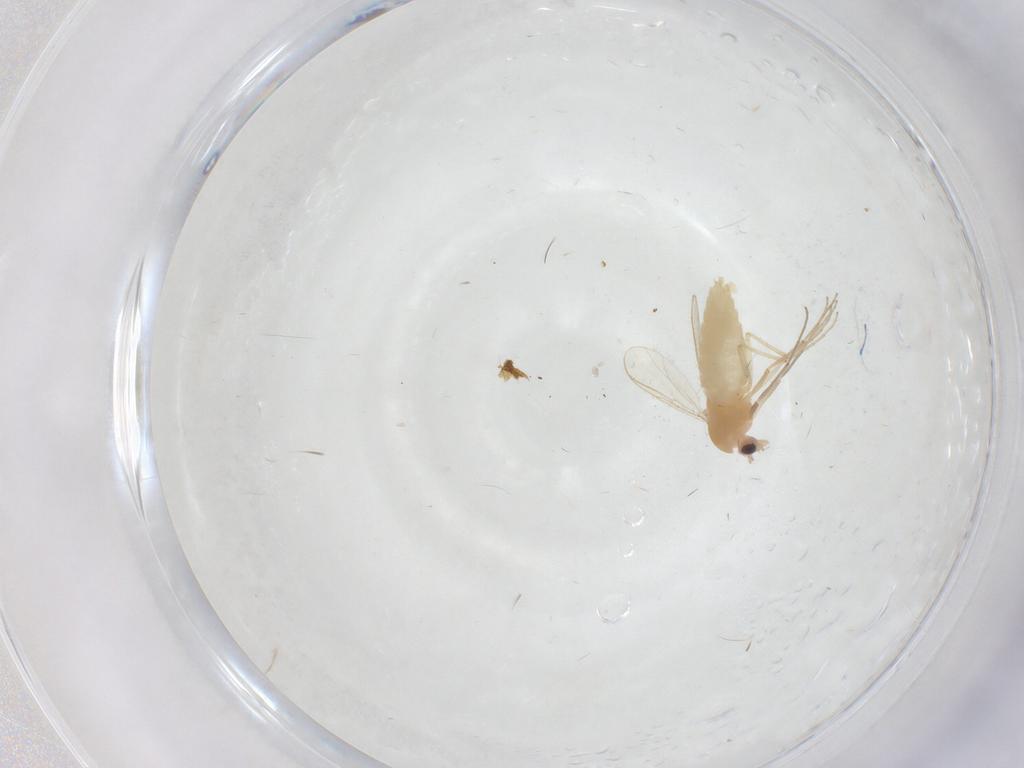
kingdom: Animalia
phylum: Arthropoda
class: Insecta
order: Diptera
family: Chironomidae
